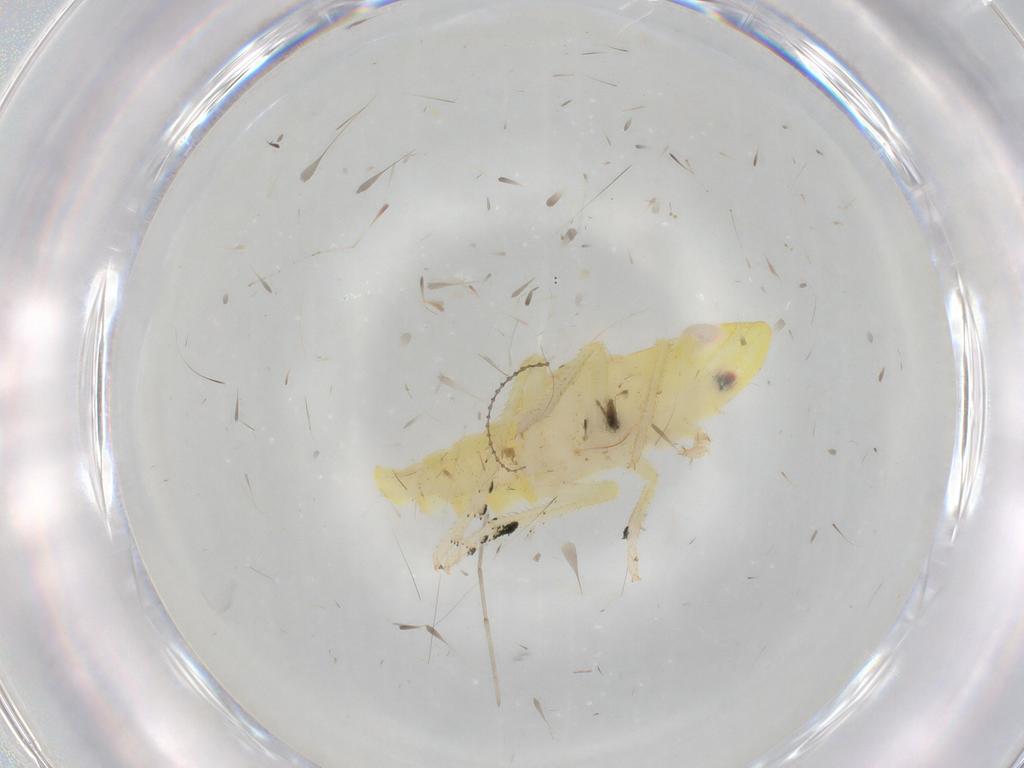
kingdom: Animalia
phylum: Arthropoda
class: Insecta
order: Hemiptera
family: Tropiduchidae
